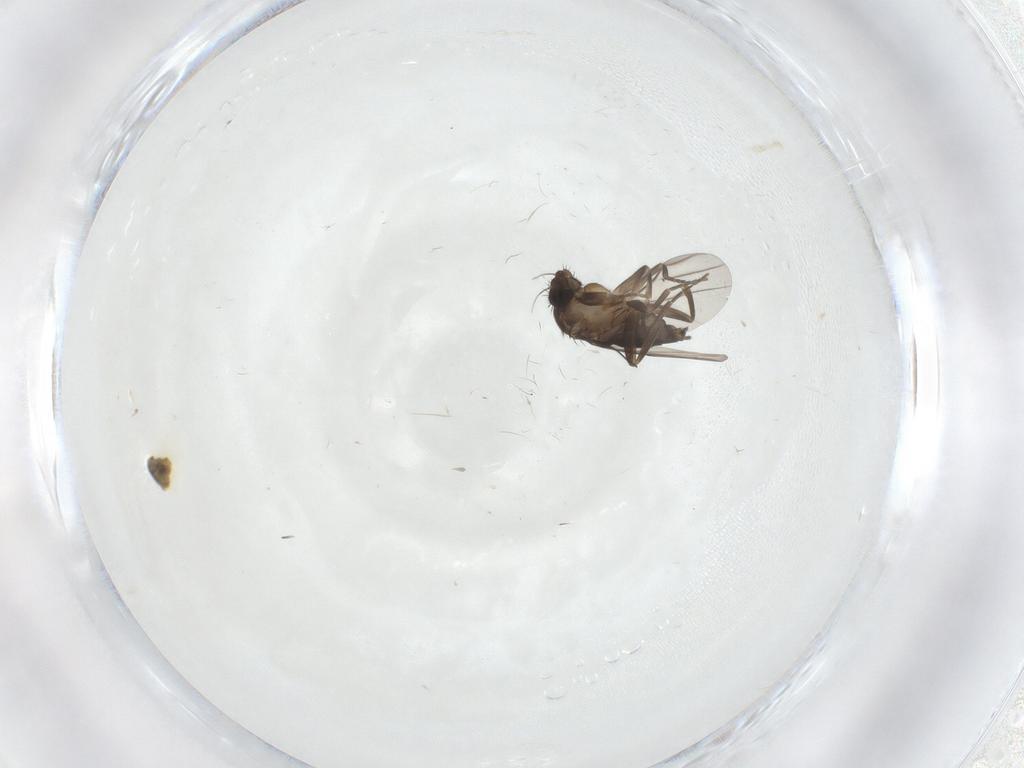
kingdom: Animalia
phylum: Arthropoda
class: Insecta
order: Diptera
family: Phoridae
